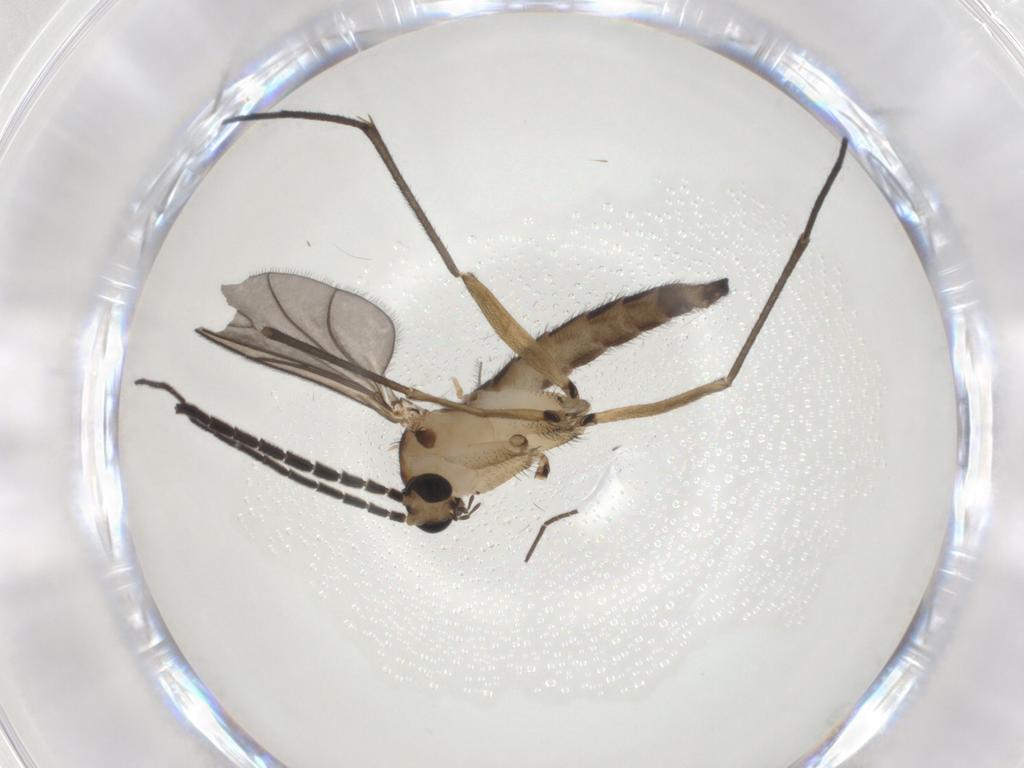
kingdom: Animalia
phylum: Arthropoda
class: Insecta
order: Diptera
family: Sciaridae
